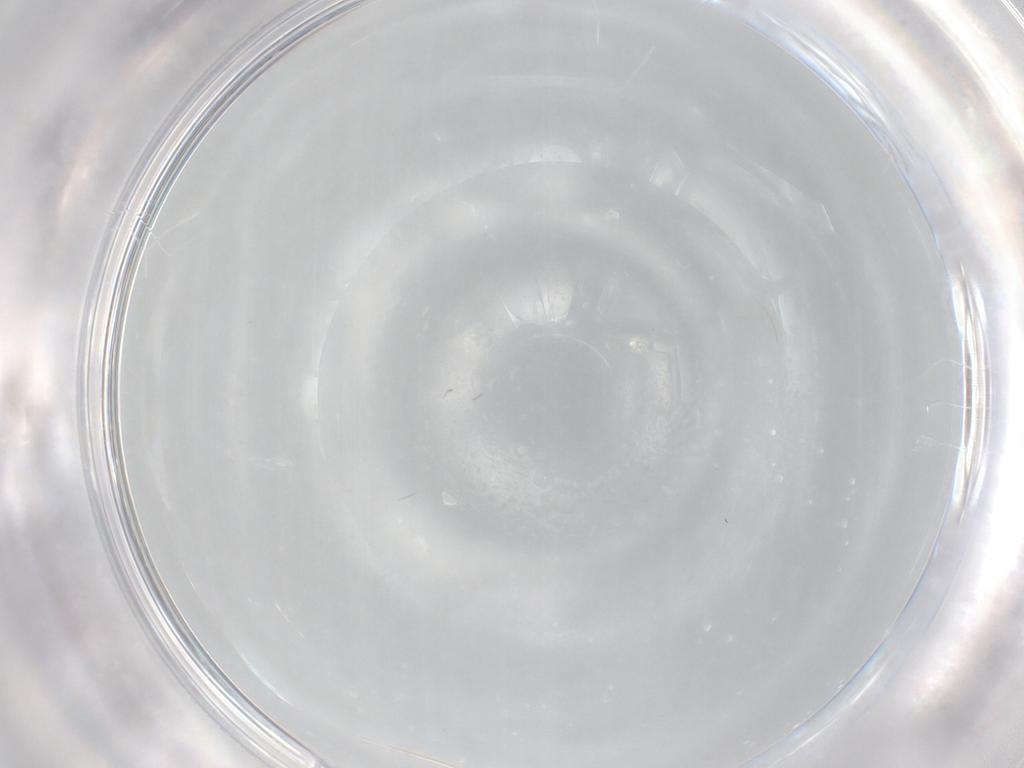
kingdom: Animalia
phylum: Arthropoda
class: Insecta
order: Diptera
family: Phoridae
